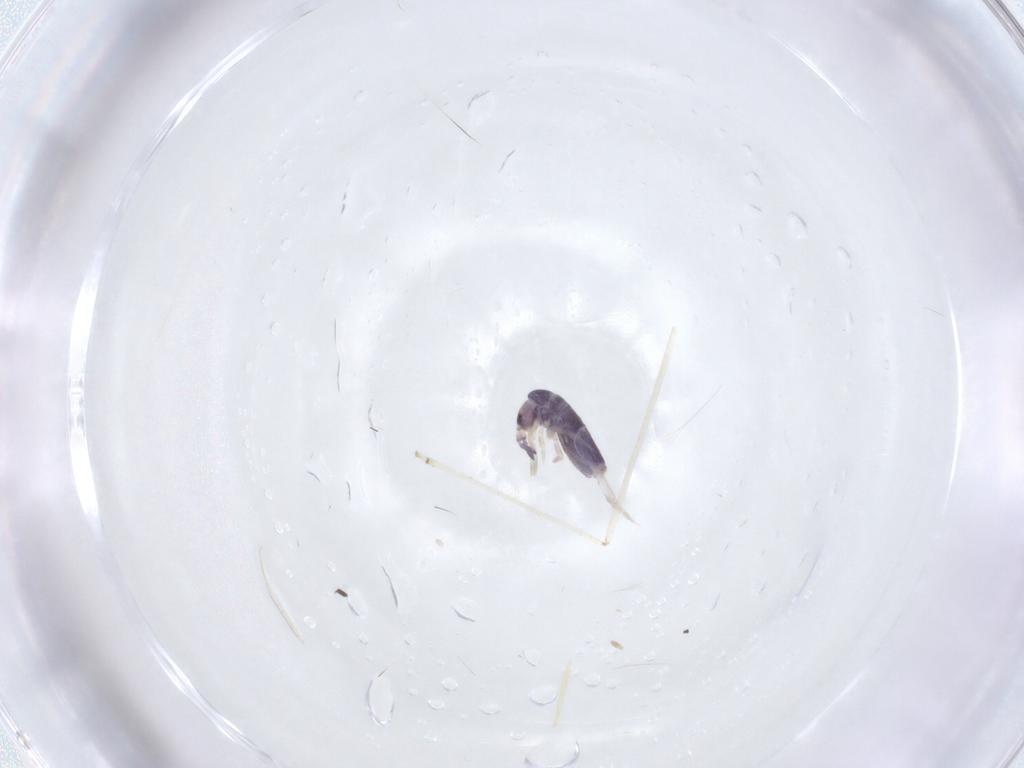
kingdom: Animalia
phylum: Arthropoda
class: Collembola
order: Entomobryomorpha
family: Entomobryidae
